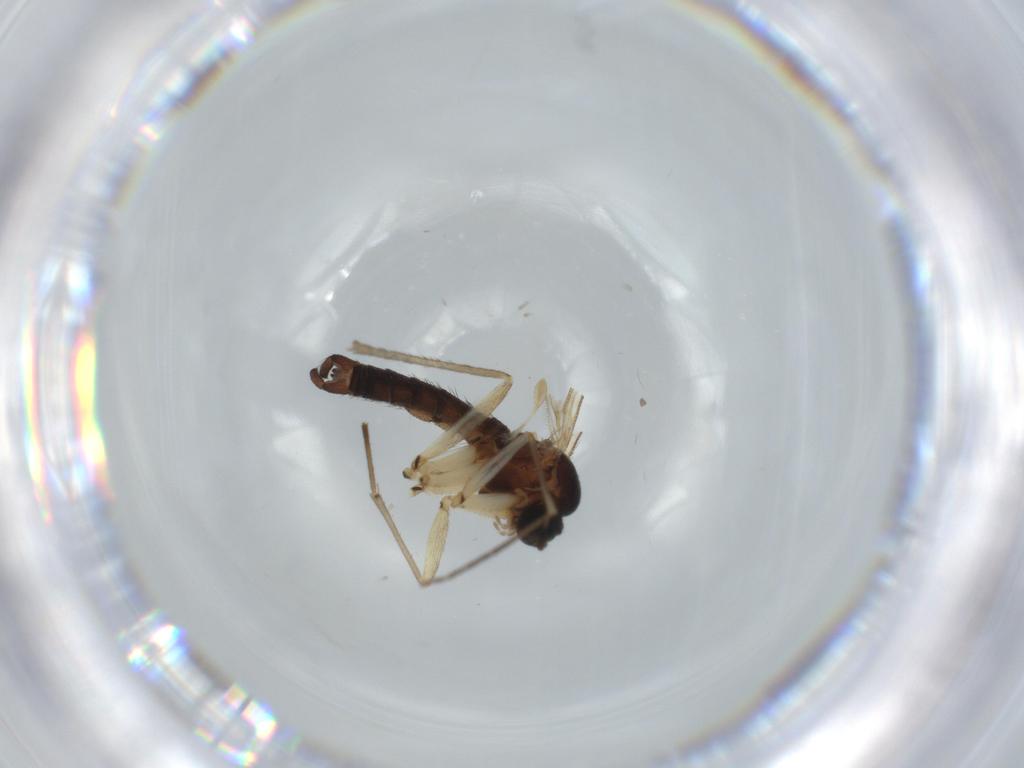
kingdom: Animalia
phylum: Arthropoda
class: Insecta
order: Diptera
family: Sciaridae
